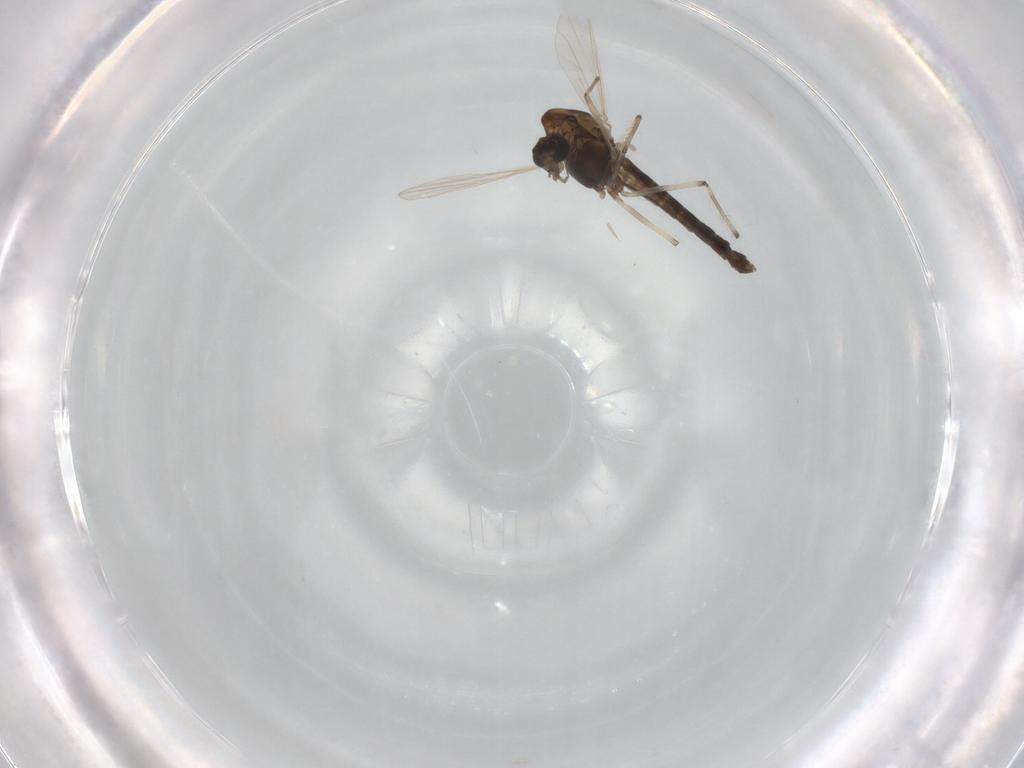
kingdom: Animalia
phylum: Arthropoda
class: Insecta
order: Diptera
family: Chironomidae
